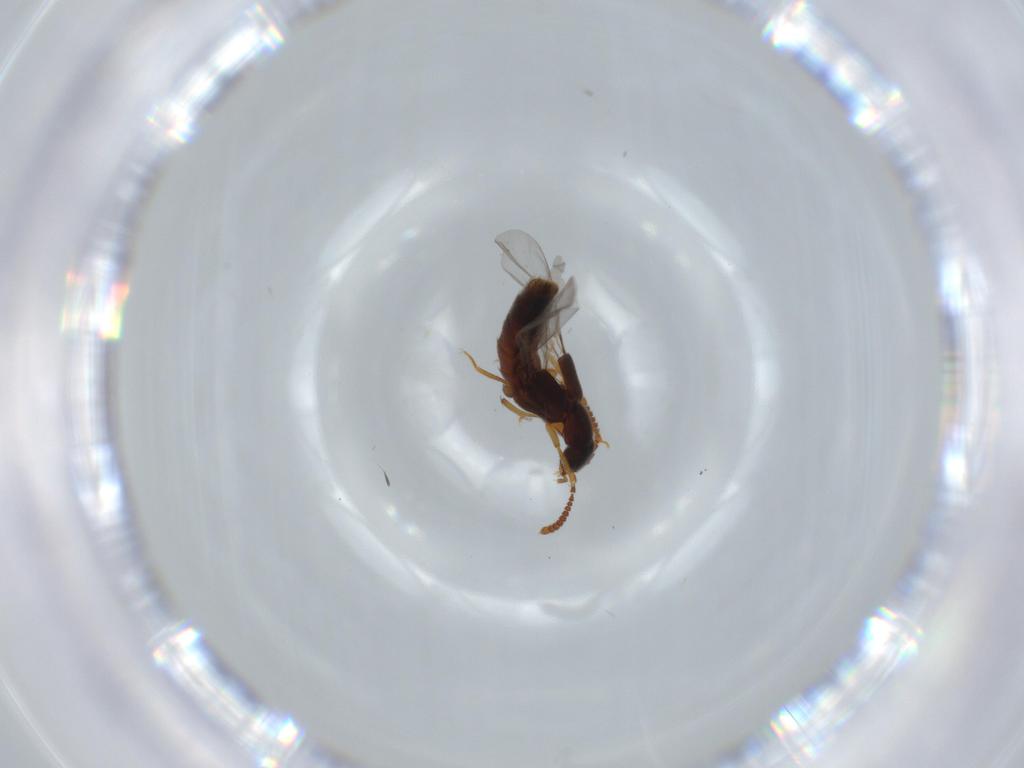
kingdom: Animalia
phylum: Arthropoda
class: Insecta
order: Coleoptera
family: Staphylinidae
